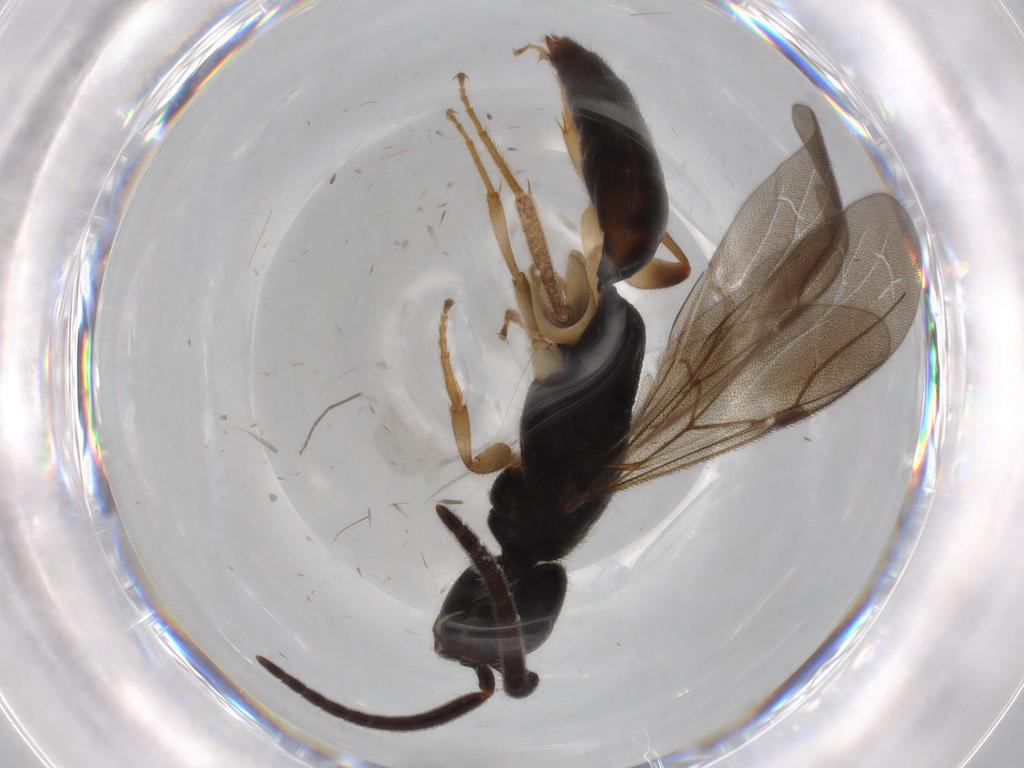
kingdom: Animalia
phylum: Arthropoda
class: Insecta
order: Hymenoptera
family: Bethylidae
